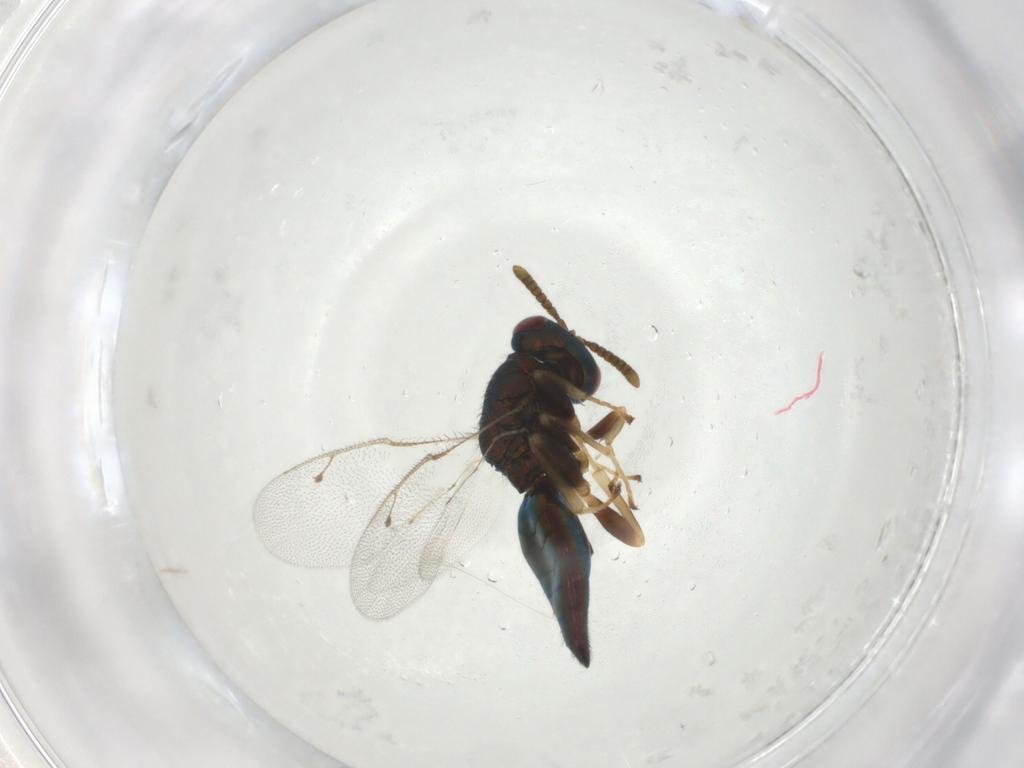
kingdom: Animalia
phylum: Arthropoda
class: Insecta
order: Hymenoptera
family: Pteromalidae
